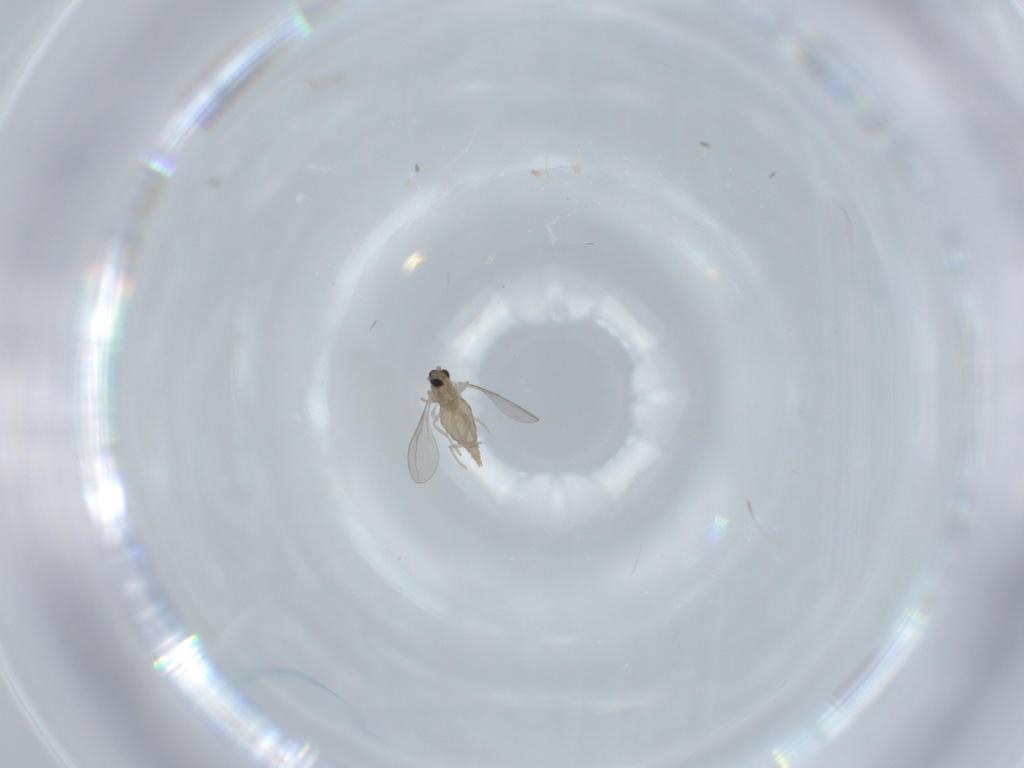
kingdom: Animalia
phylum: Arthropoda
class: Insecta
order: Diptera
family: Cecidomyiidae
